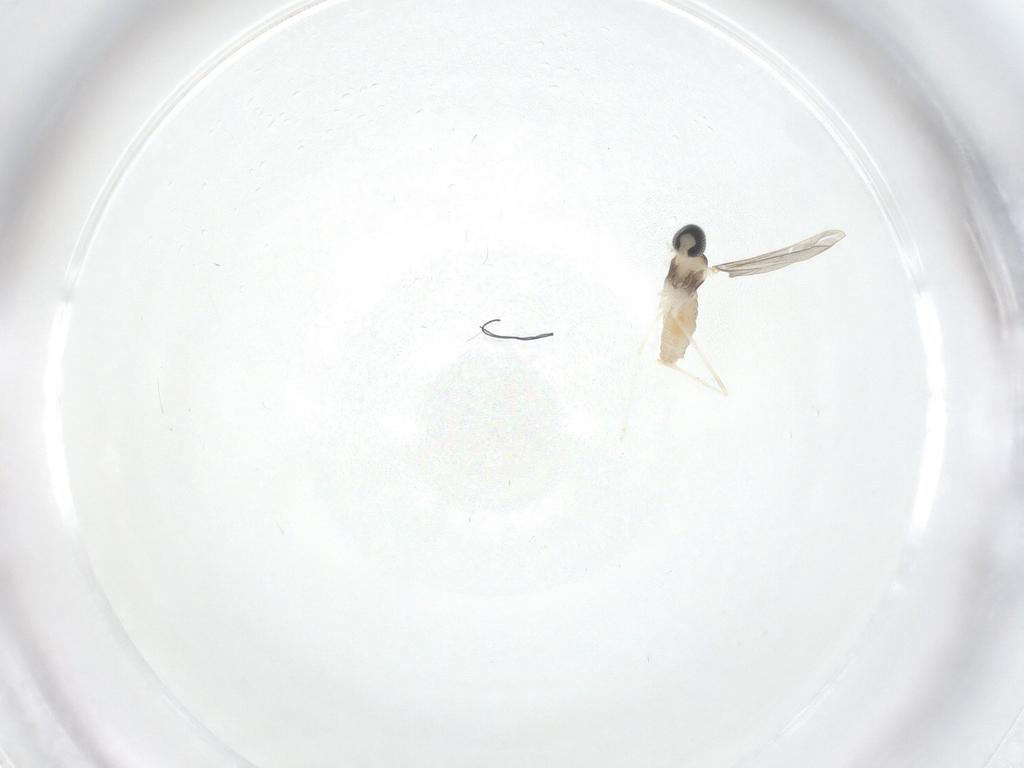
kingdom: Animalia
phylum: Arthropoda
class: Insecta
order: Diptera
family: Cecidomyiidae
